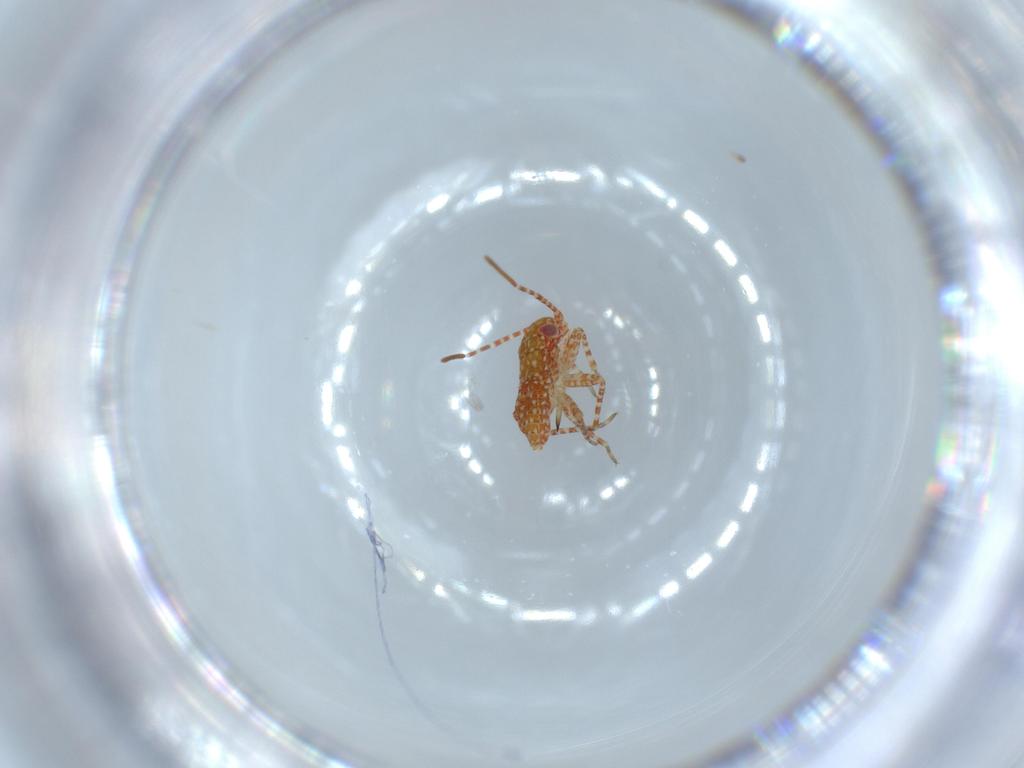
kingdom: Animalia
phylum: Arthropoda
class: Insecta
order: Hemiptera
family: Miridae
